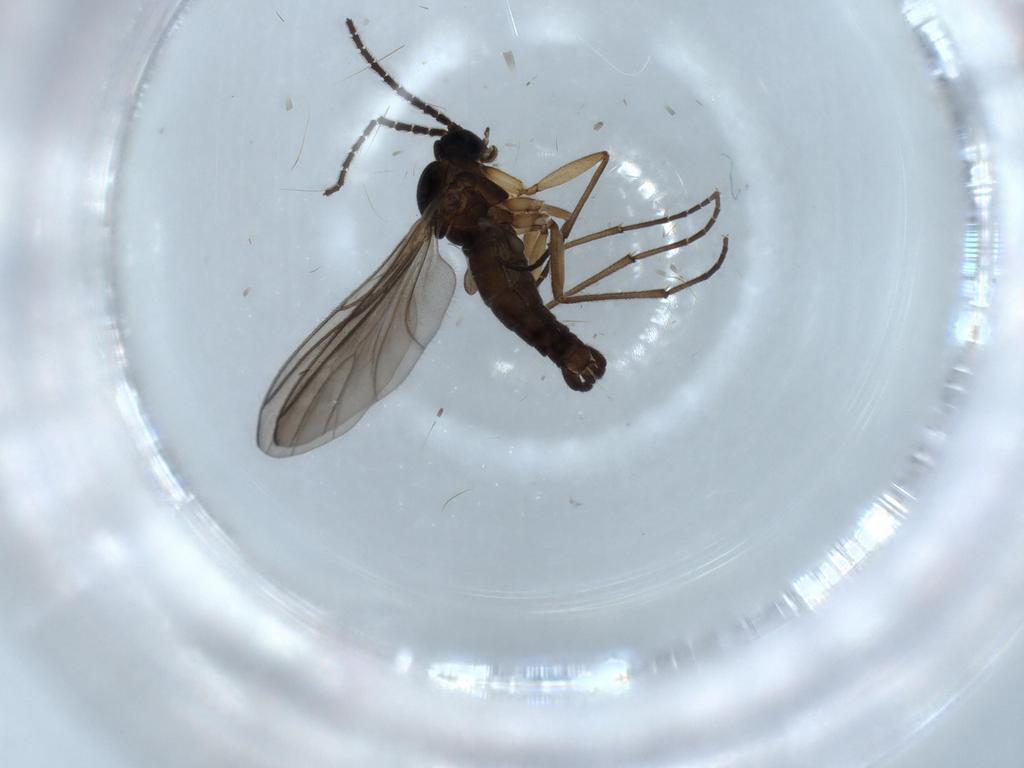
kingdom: Animalia
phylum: Arthropoda
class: Insecta
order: Diptera
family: Sciaridae
